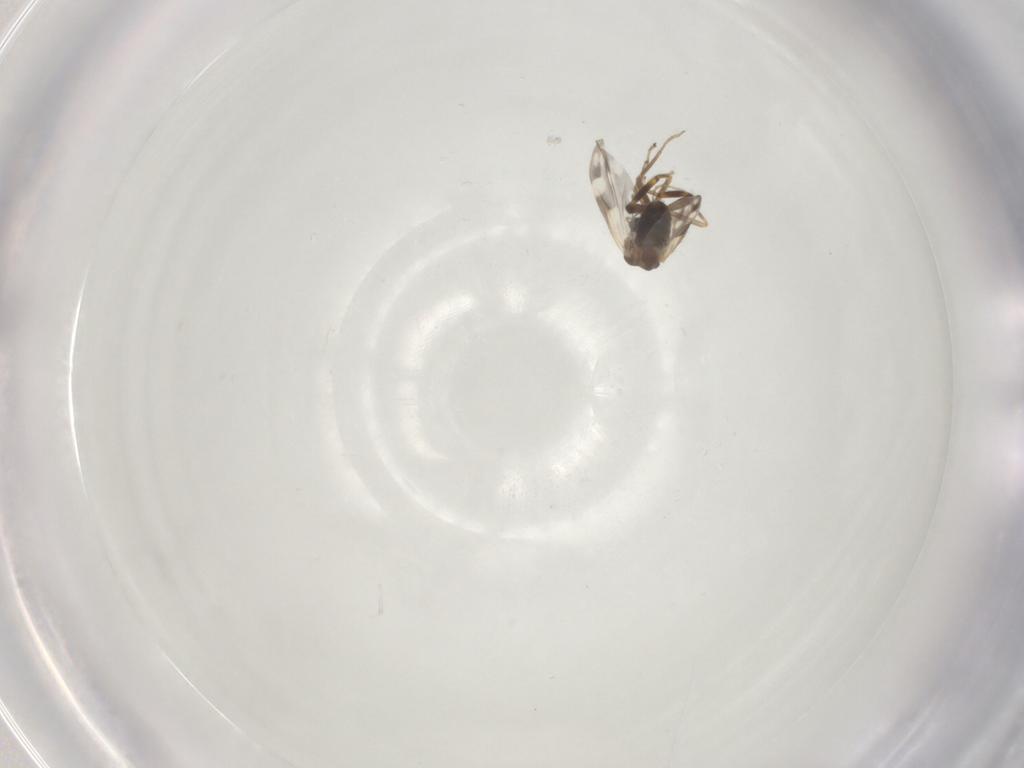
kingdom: Animalia
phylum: Arthropoda
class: Insecta
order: Diptera
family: Ceratopogonidae
